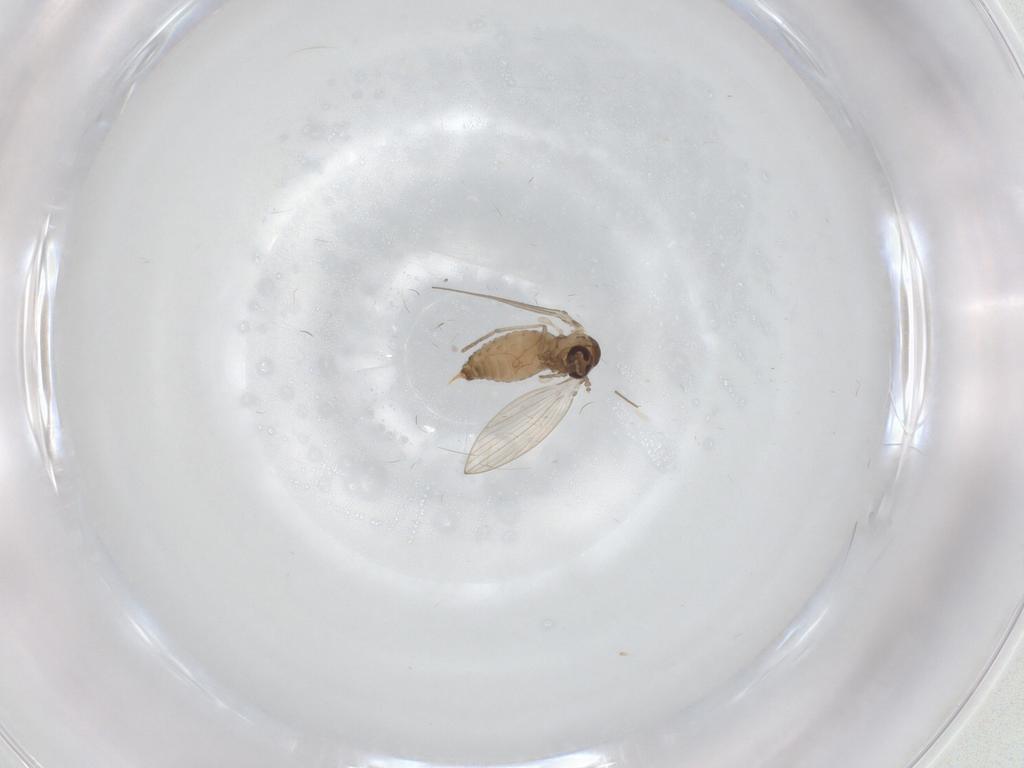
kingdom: Animalia
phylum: Arthropoda
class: Insecta
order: Diptera
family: Psychodidae
